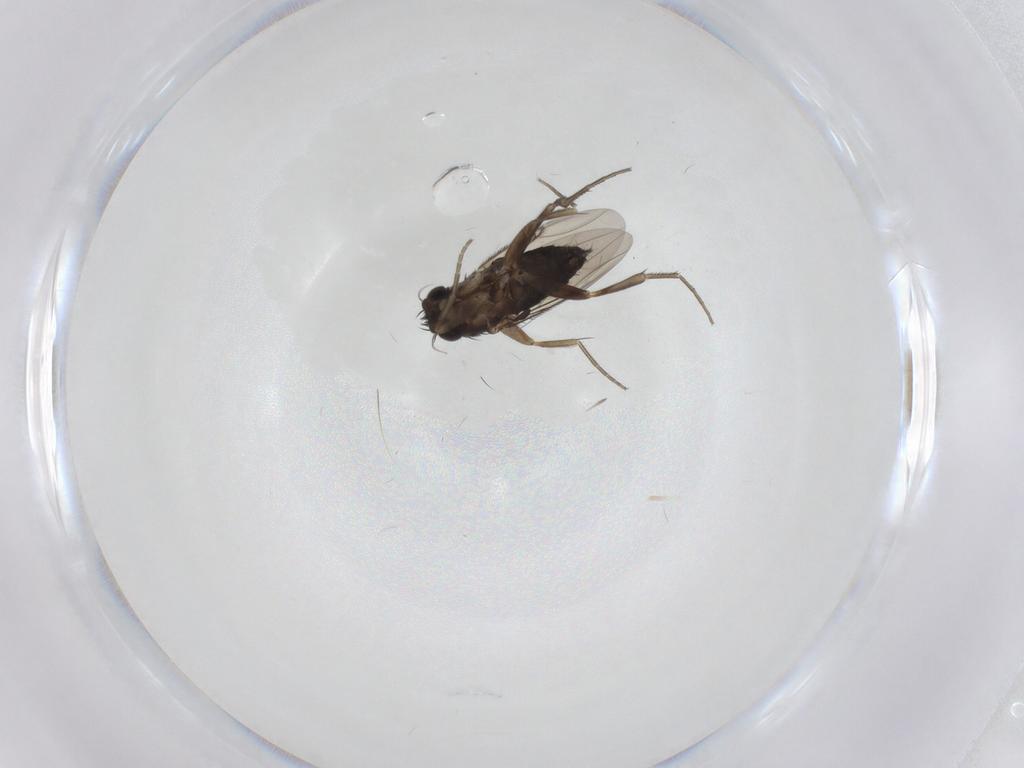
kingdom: Animalia
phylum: Arthropoda
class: Insecta
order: Diptera
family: Phoridae
